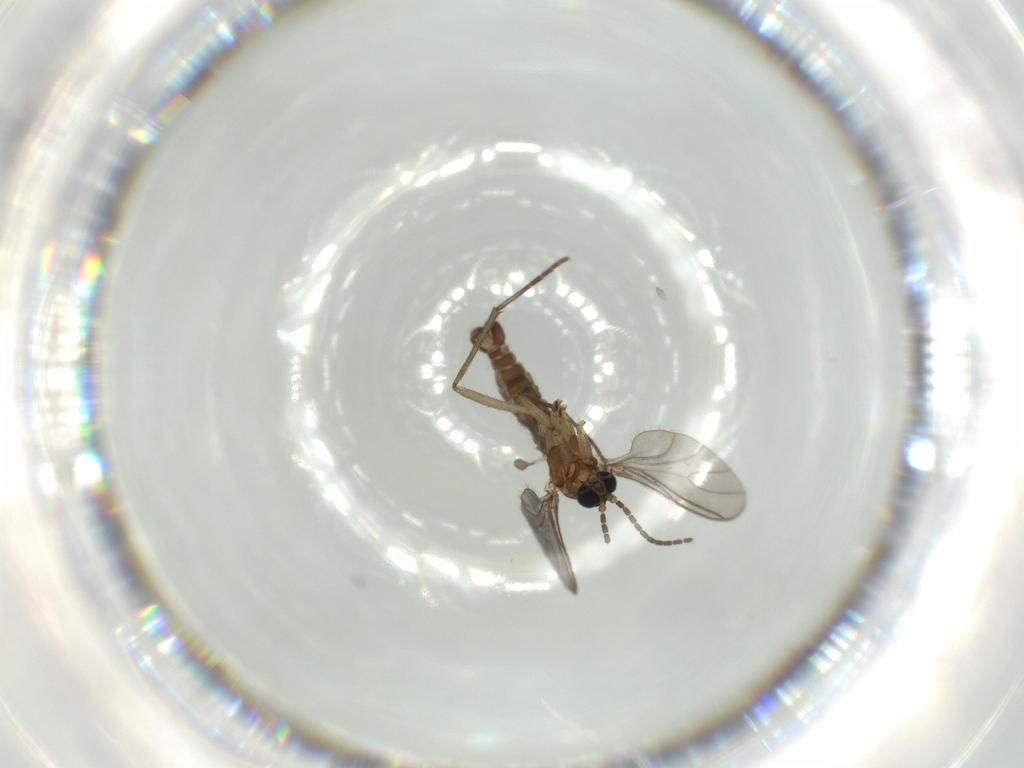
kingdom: Animalia
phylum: Arthropoda
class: Insecta
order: Diptera
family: Sciaridae
